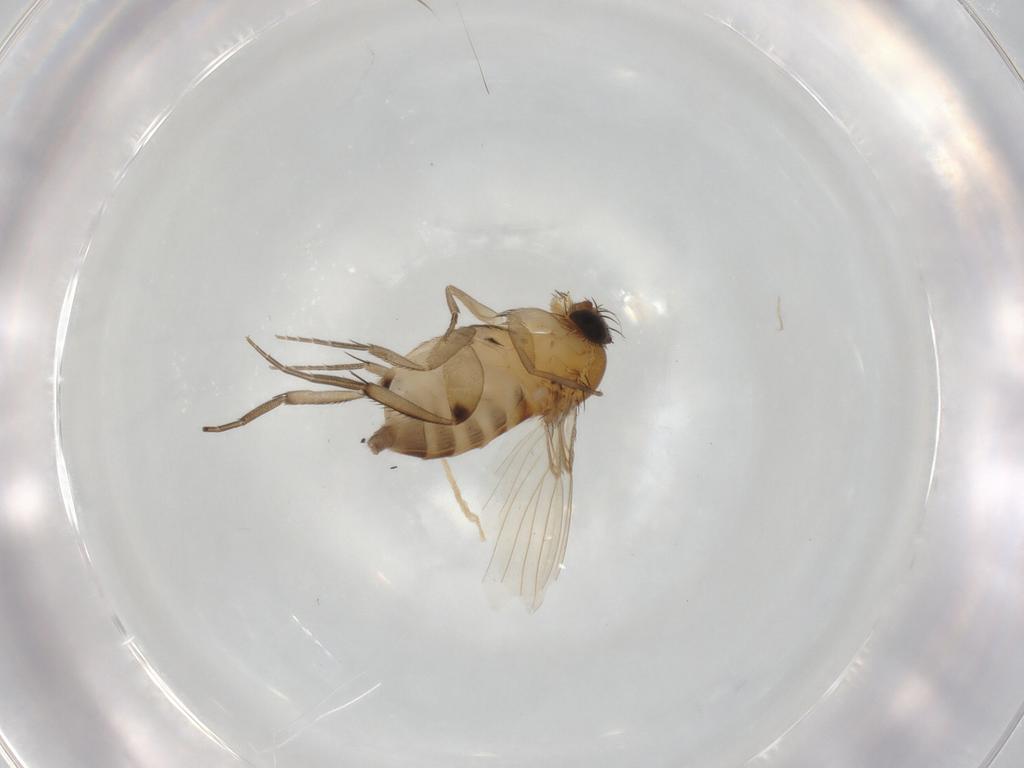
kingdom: Animalia
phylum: Arthropoda
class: Insecta
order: Diptera
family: Phoridae
